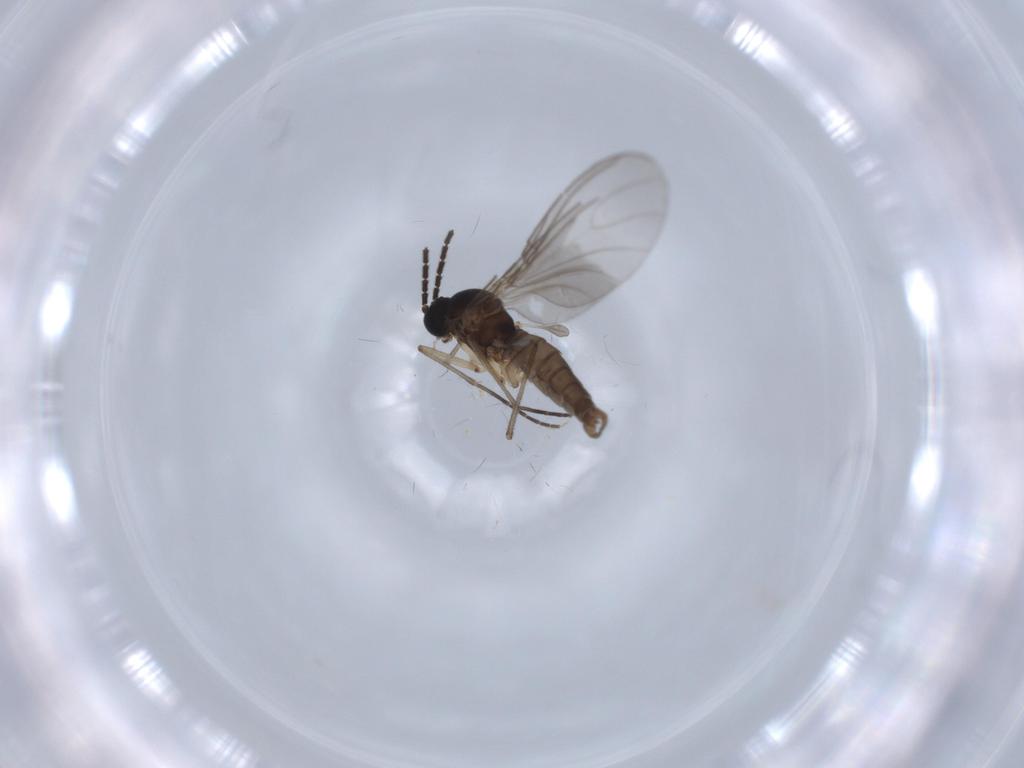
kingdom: Animalia
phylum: Arthropoda
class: Insecta
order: Diptera
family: Sciaridae
